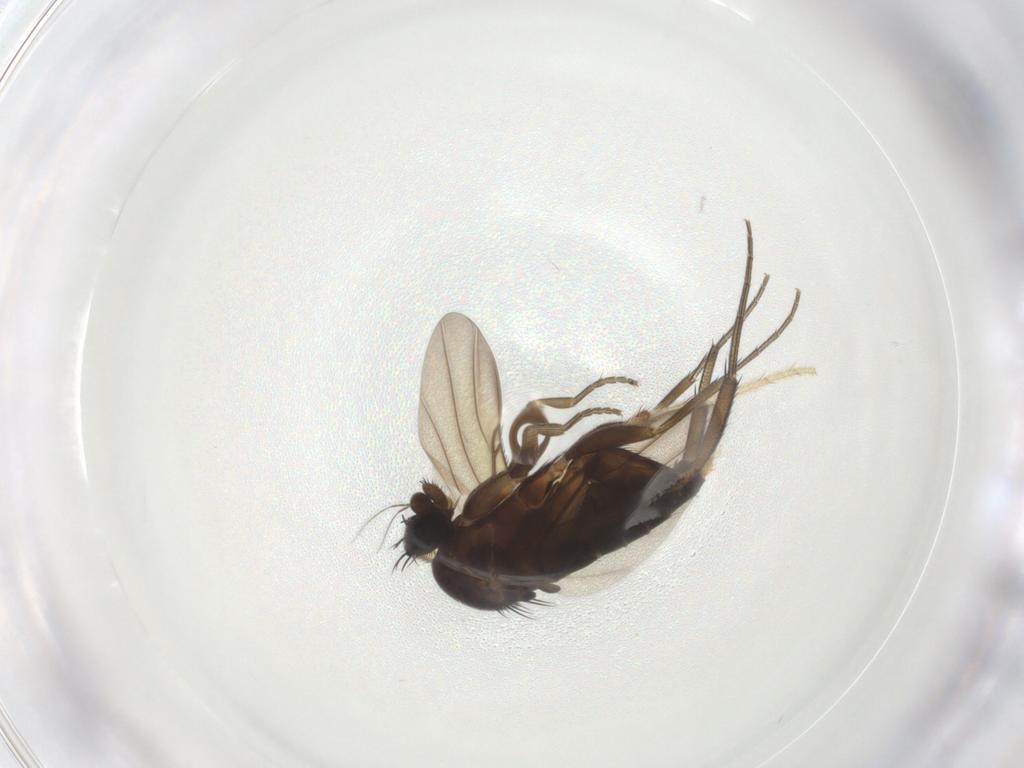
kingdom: Animalia
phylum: Arthropoda
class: Insecta
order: Diptera
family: Phoridae
